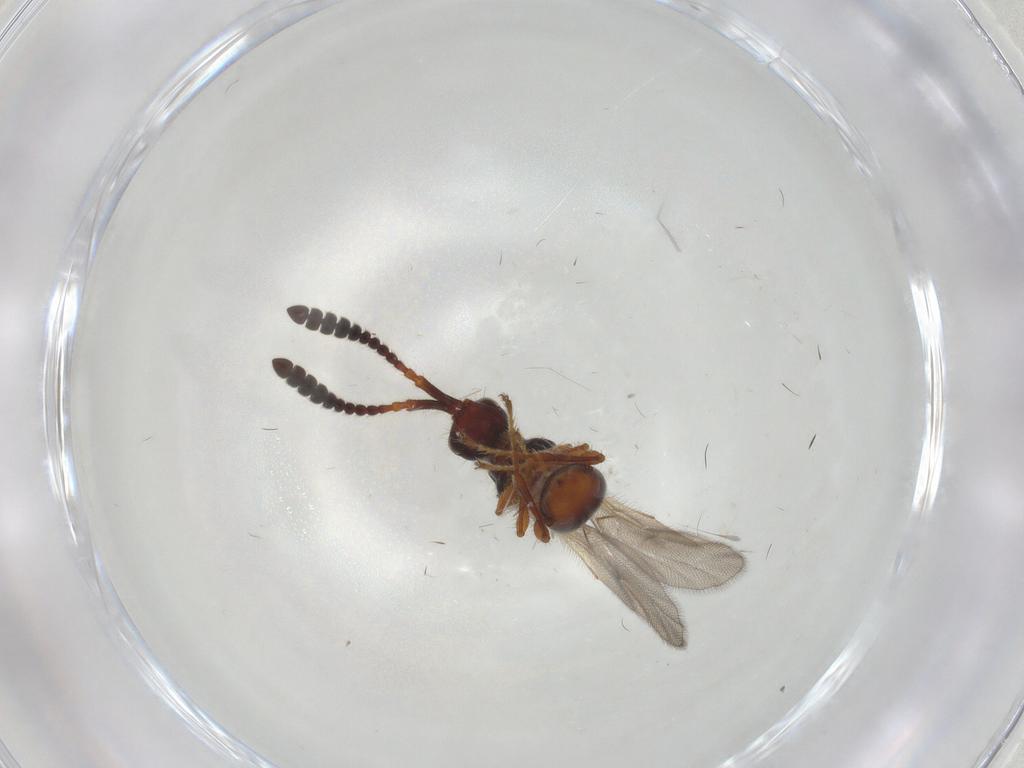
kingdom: Animalia
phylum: Arthropoda
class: Insecta
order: Hymenoptera
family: Diapriidae
